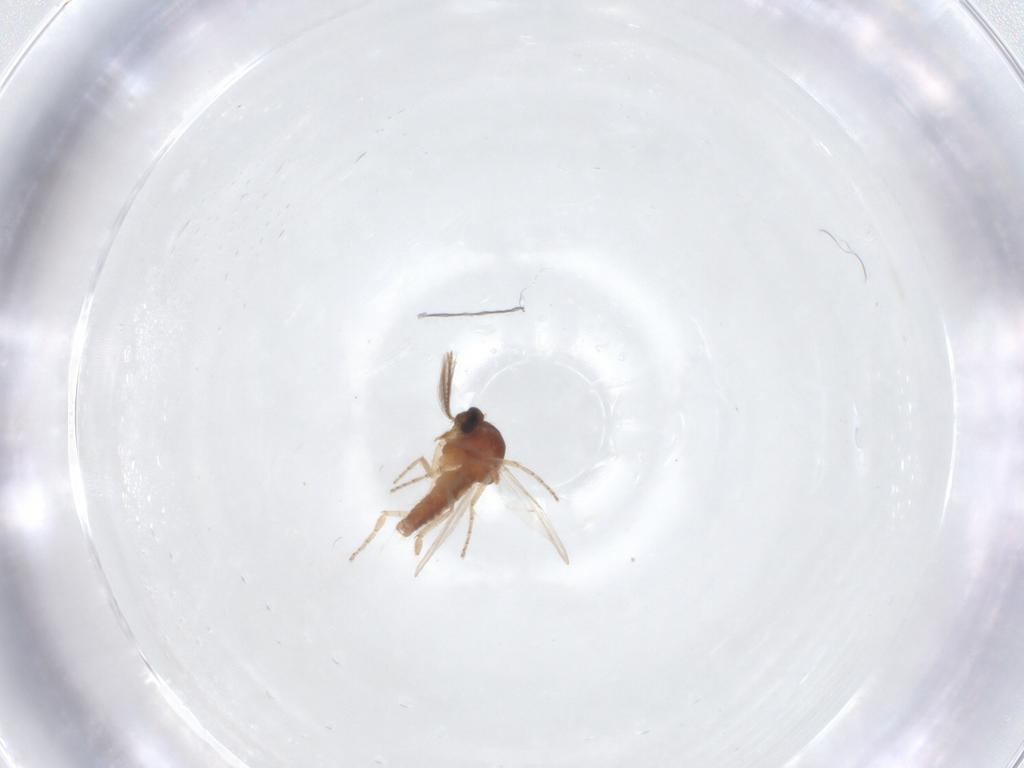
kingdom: Animalia
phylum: Arthropoda
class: Insecta
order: Diptera
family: Ceratopogonidae
